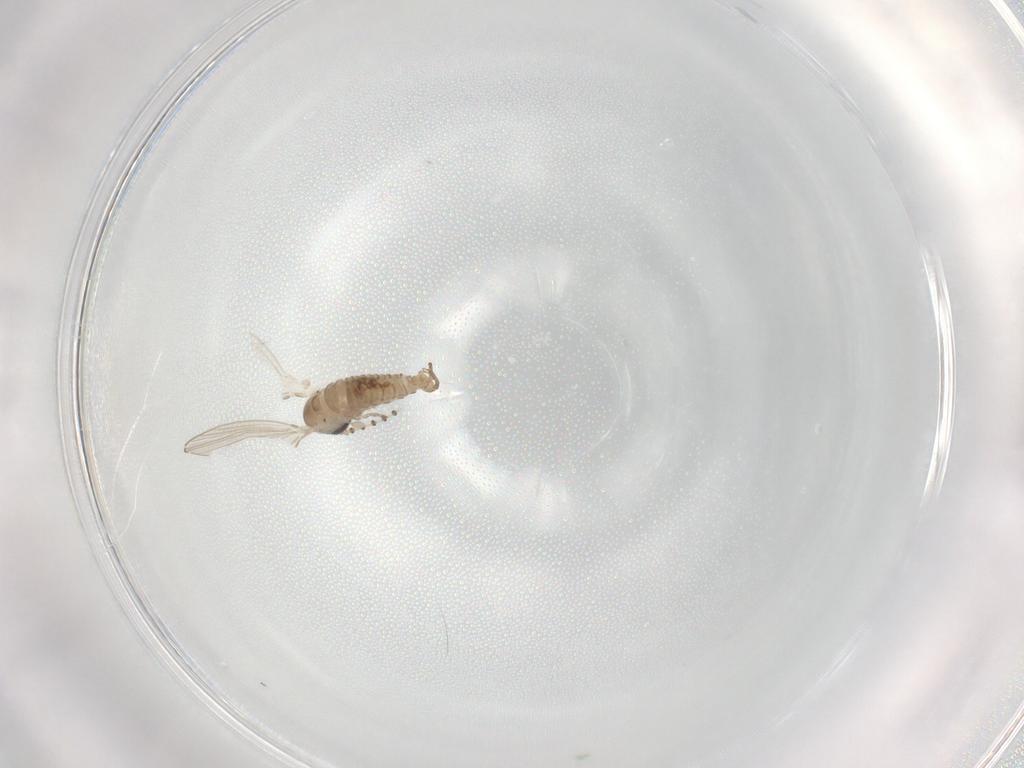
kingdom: Animalia
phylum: Arthropoda
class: Insecta
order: Diptera
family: Psychodidae
